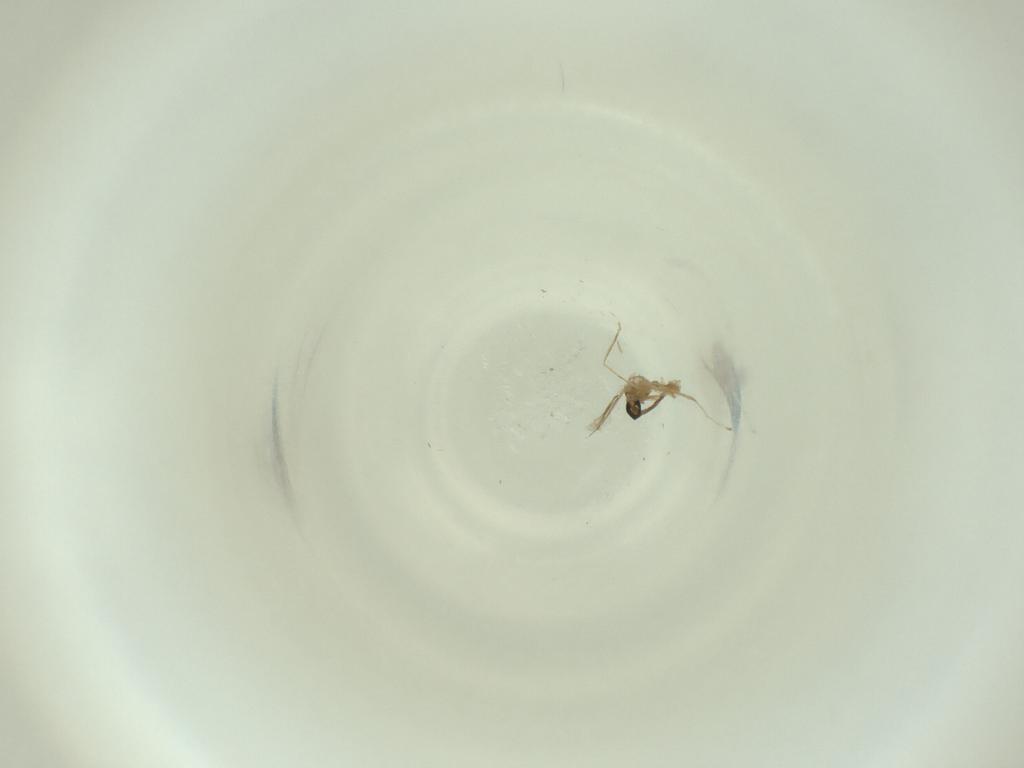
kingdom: Animalia
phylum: Arthropoda
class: Insecta
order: Diptera
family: Cecidomyiidae
